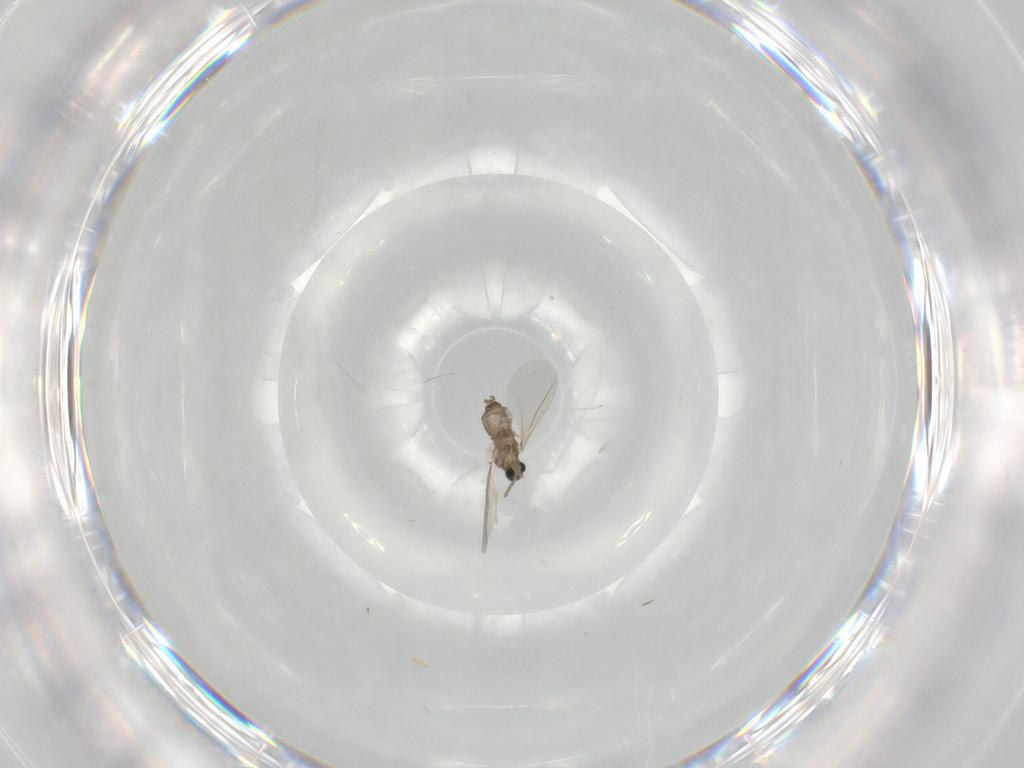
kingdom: Animalia
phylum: Arthropoda
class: Insecta
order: Diptera
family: Cecidomyiidae
